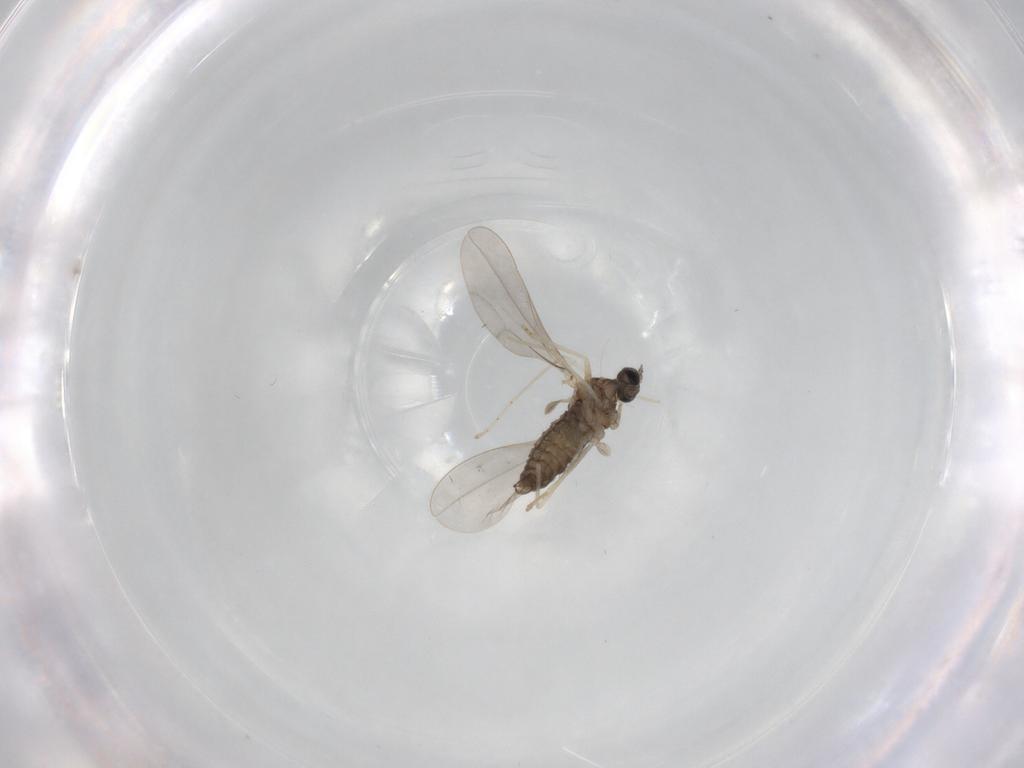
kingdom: Animalia
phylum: Arthropoda
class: Insecta
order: Diptera
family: Cecidomyiidae
